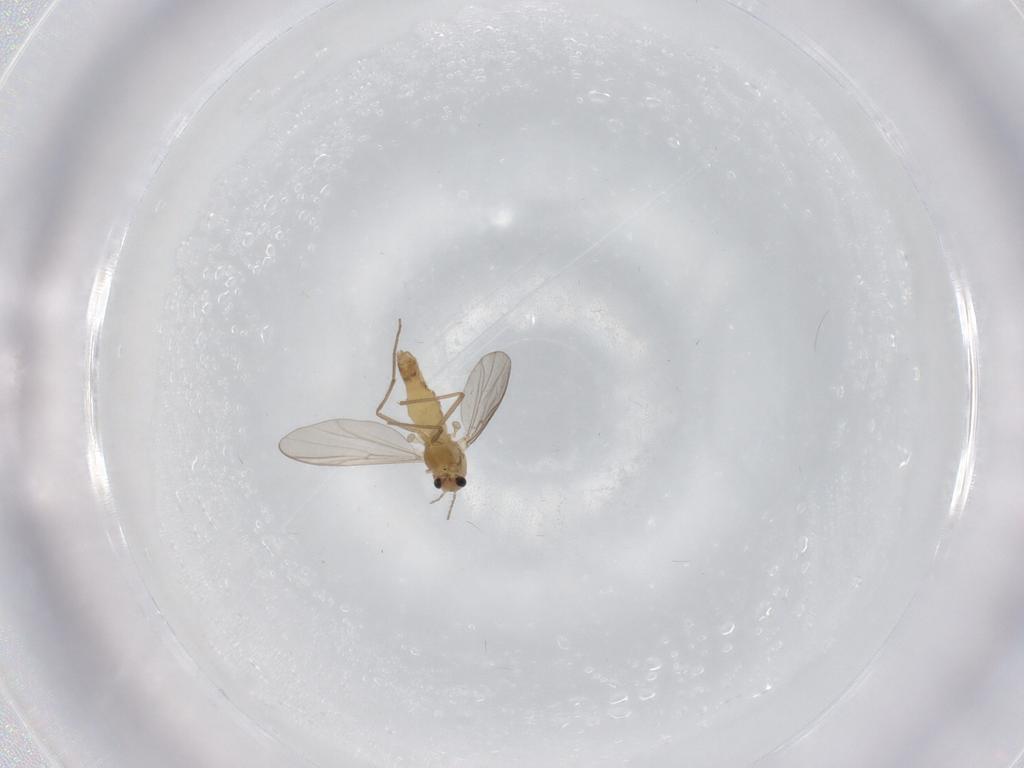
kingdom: Animalia
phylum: Arthropoda
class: Insecta
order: Diptera
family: Chironomidae
